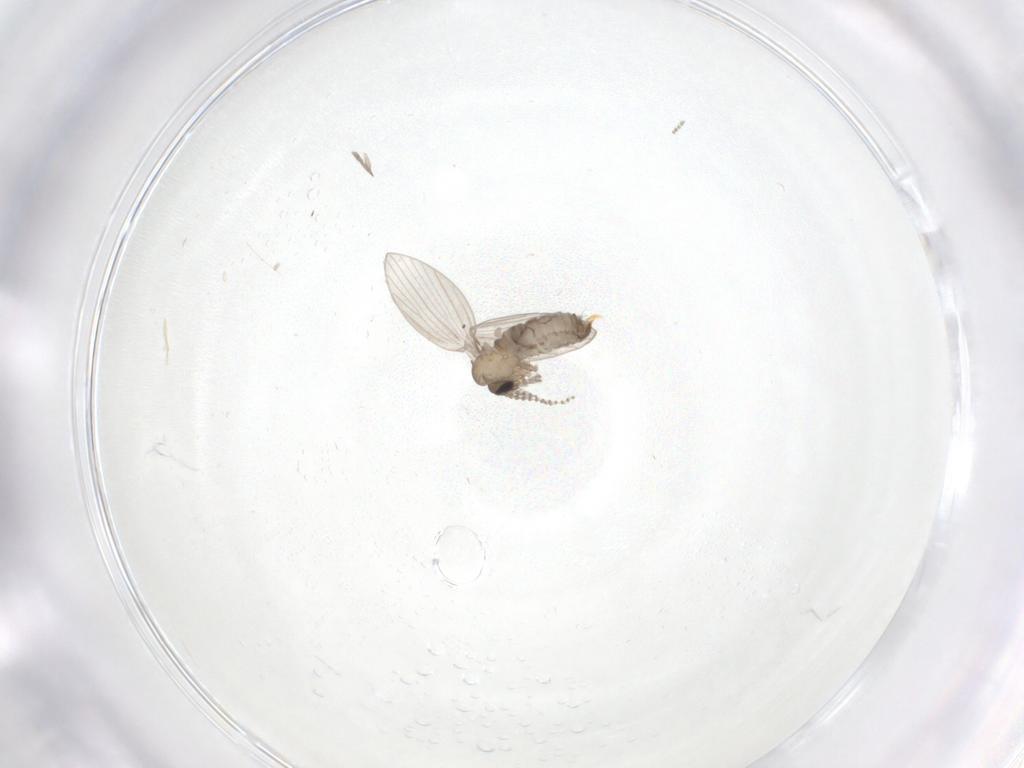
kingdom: Animalia
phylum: Arthropoda
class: Insecta
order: Diptera
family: Psychodidae
